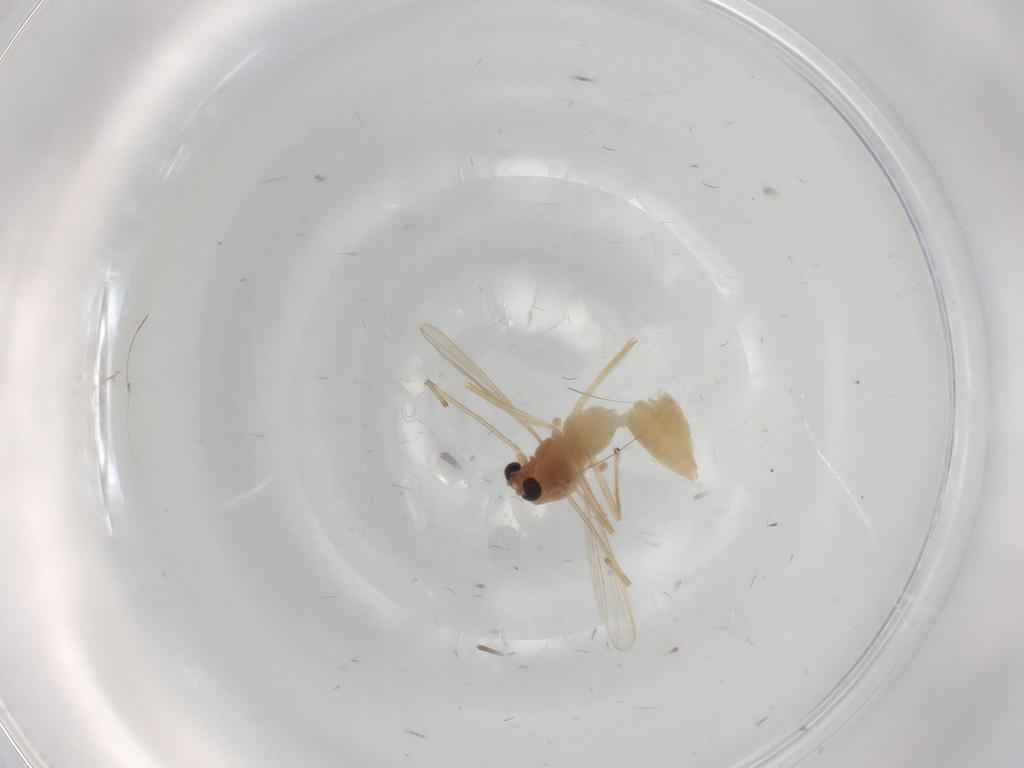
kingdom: Animalia
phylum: Arthropoda
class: Insecta
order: Diptera
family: Chironomidae
